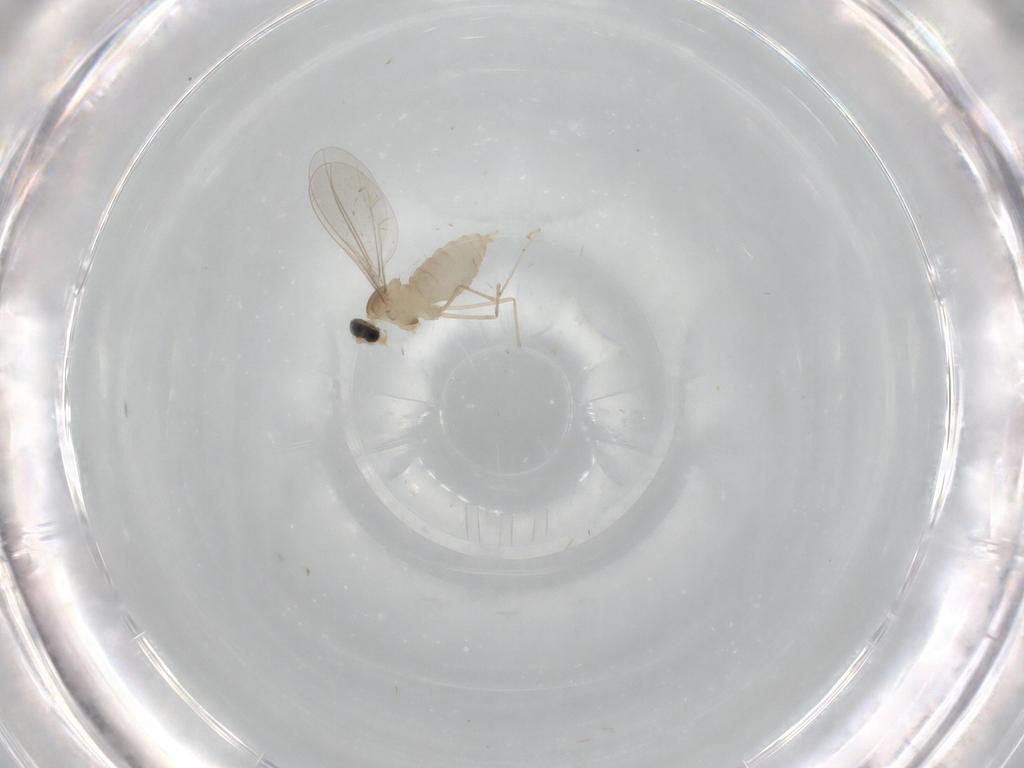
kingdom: Animalia
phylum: Arthropoda
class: Insecta
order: Diptera
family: Cecidomyiidae
